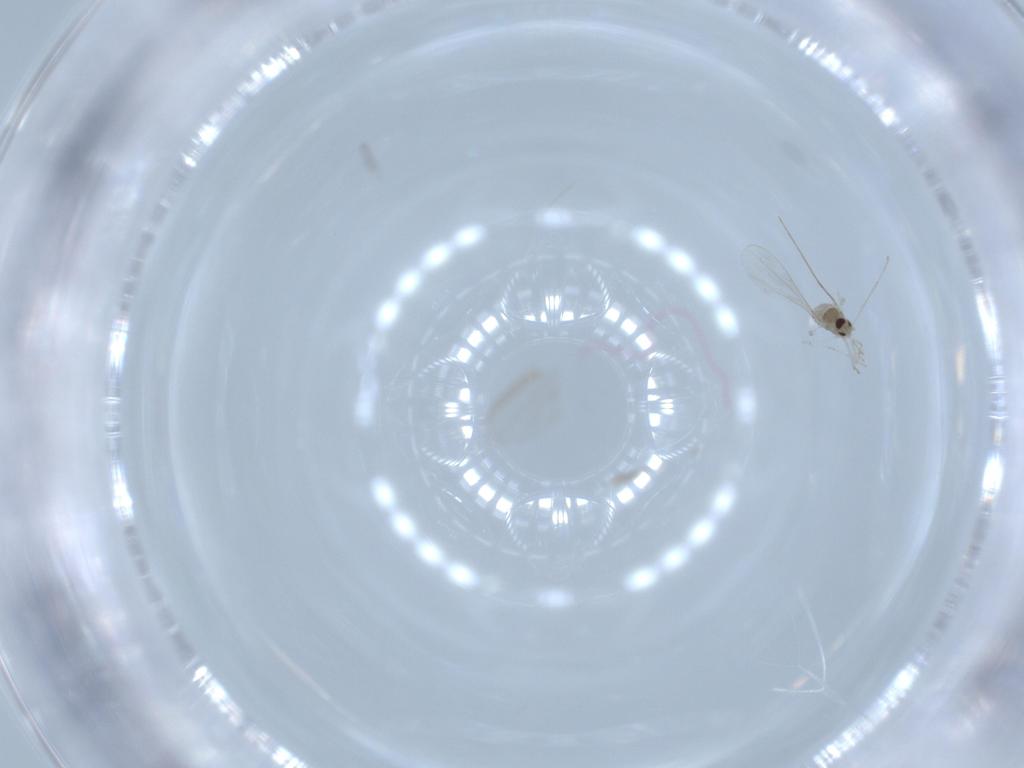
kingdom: Animalia
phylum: Arthropoda
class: Insecta
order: Diptera
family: Cecidomyiidae
